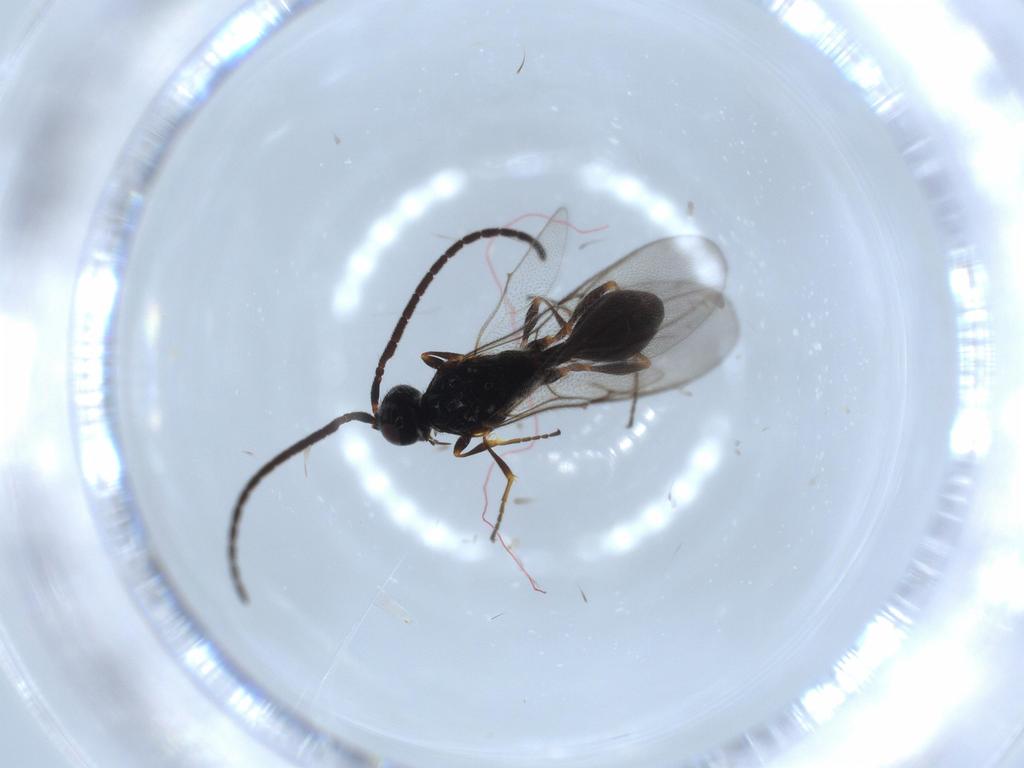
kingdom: Animalia
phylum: Arthropoda
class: Insecta
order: Hymenoptera
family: Diapriidae
